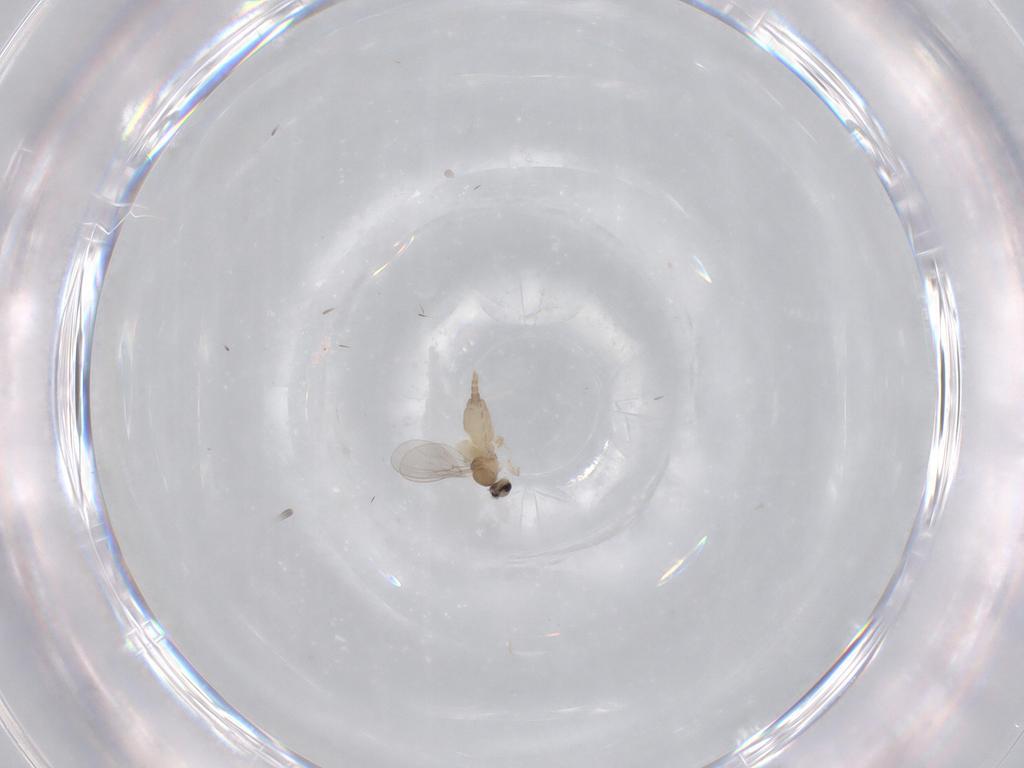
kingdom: Animalia
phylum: Arthropoda
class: Insecta
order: Diptera
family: Cecidomyiidae
